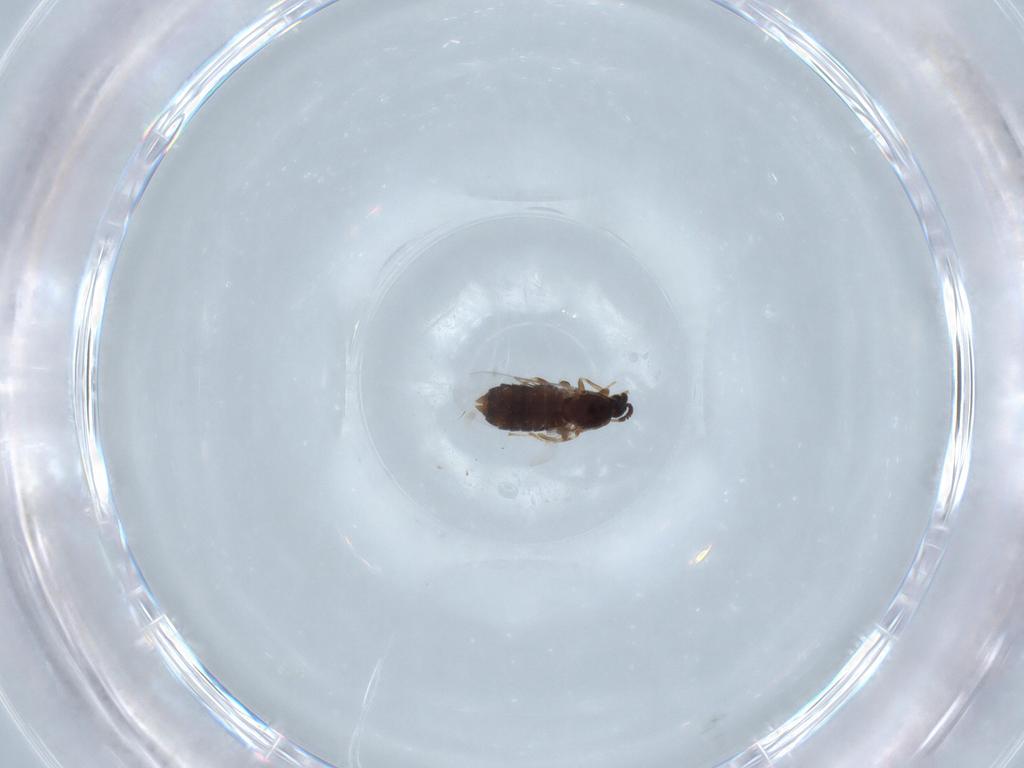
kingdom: Animalia
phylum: Arthropoda
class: Insecta
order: Diptera
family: Scatopsidae
